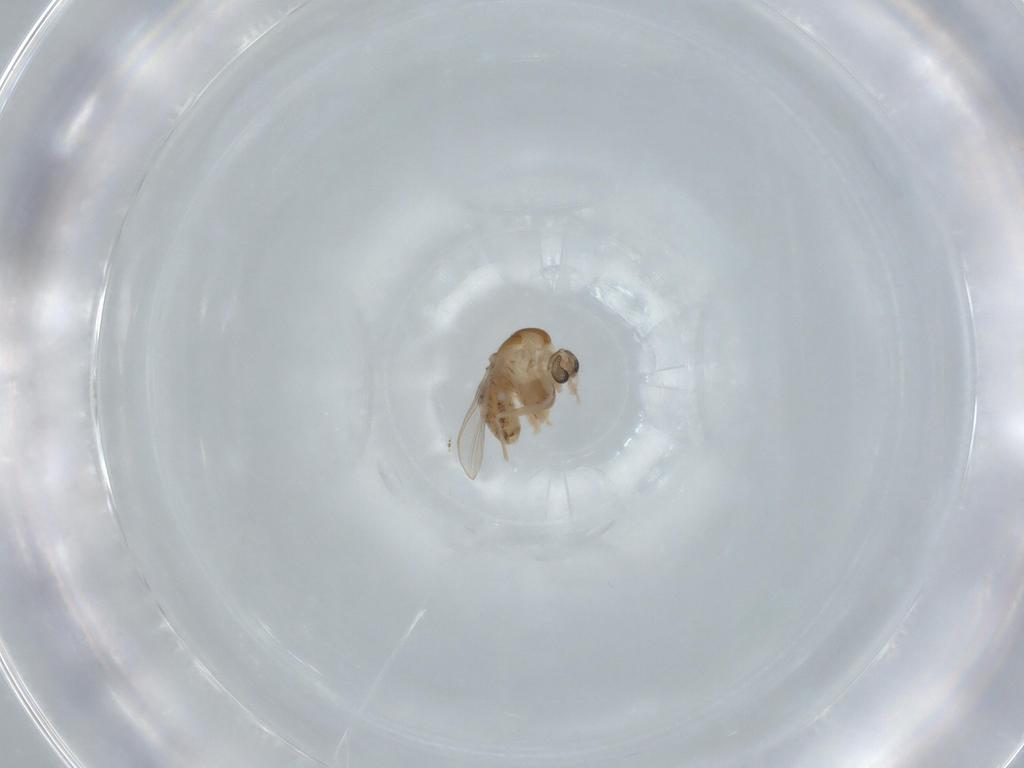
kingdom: Animalia
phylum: Arthropoda
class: Insecta
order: Diptera
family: Chironomidae
